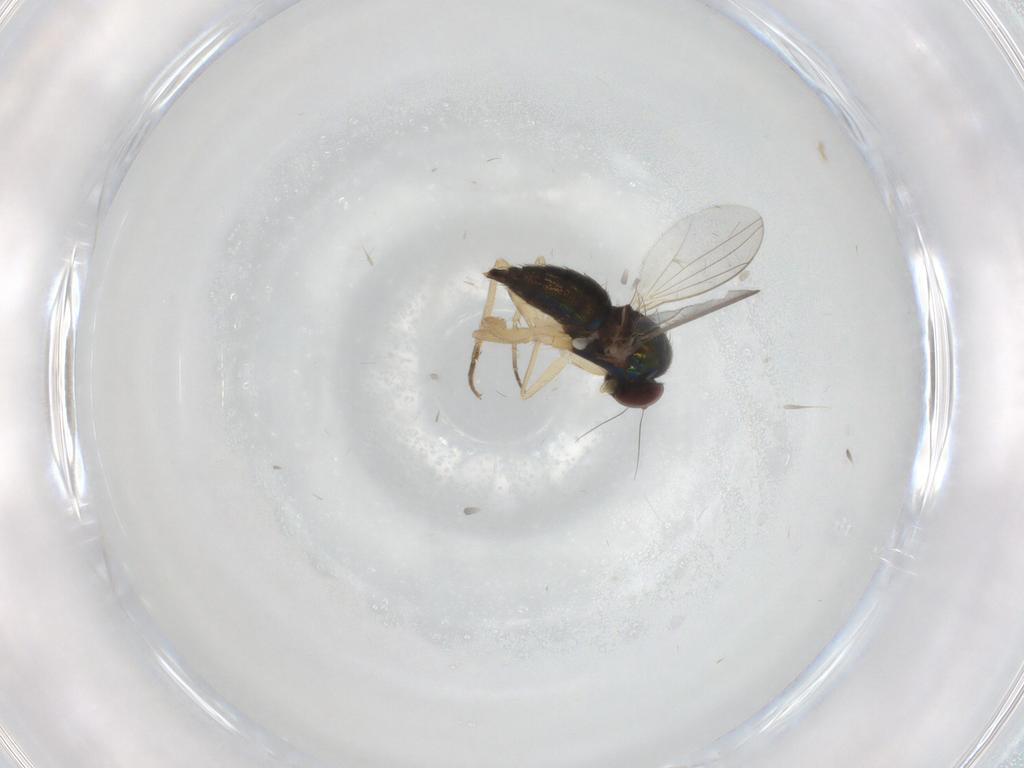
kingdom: Animalia
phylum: Arthropoda
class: Insecta
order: Diptera
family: Dolichopodidae
